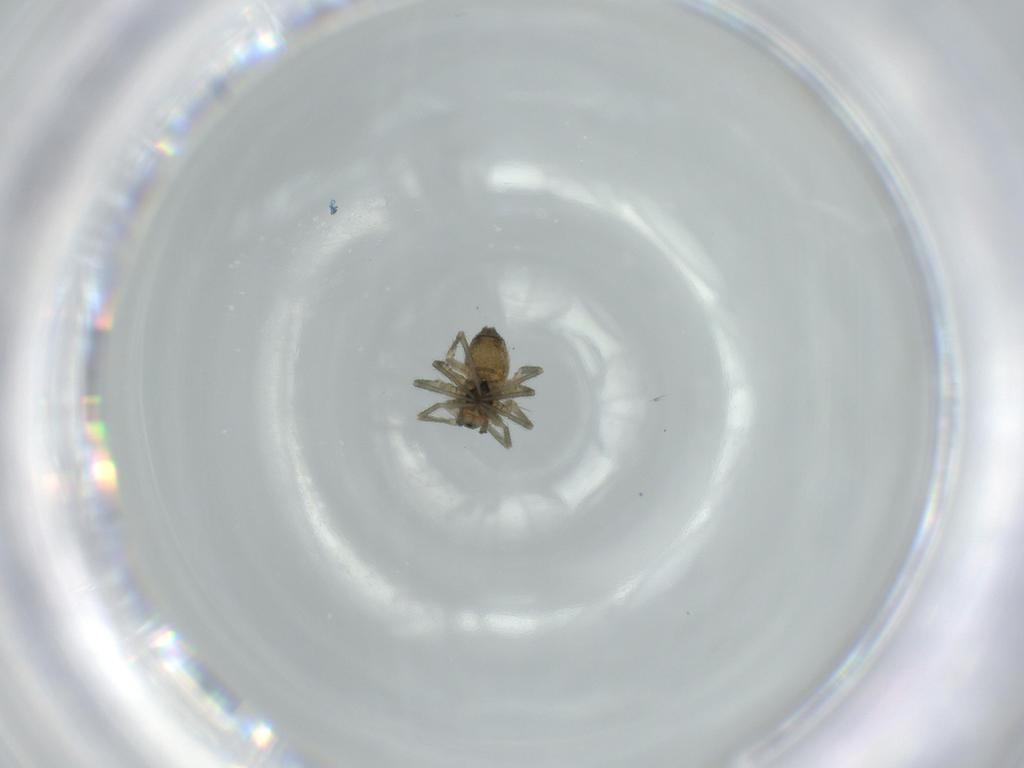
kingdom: Animalia
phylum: Arthropoda
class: Arachnida
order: Araneae
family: Linyphiidae
